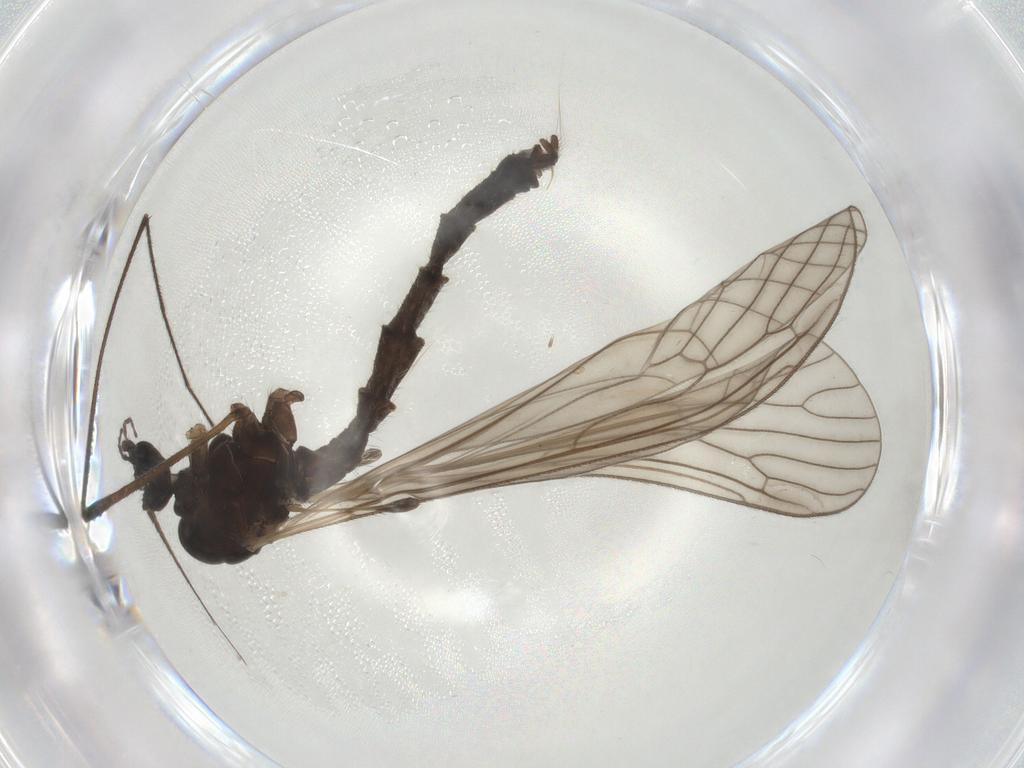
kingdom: Animalia
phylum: Arthropoda
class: Insecta
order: Diptera
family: Trichoceridae
